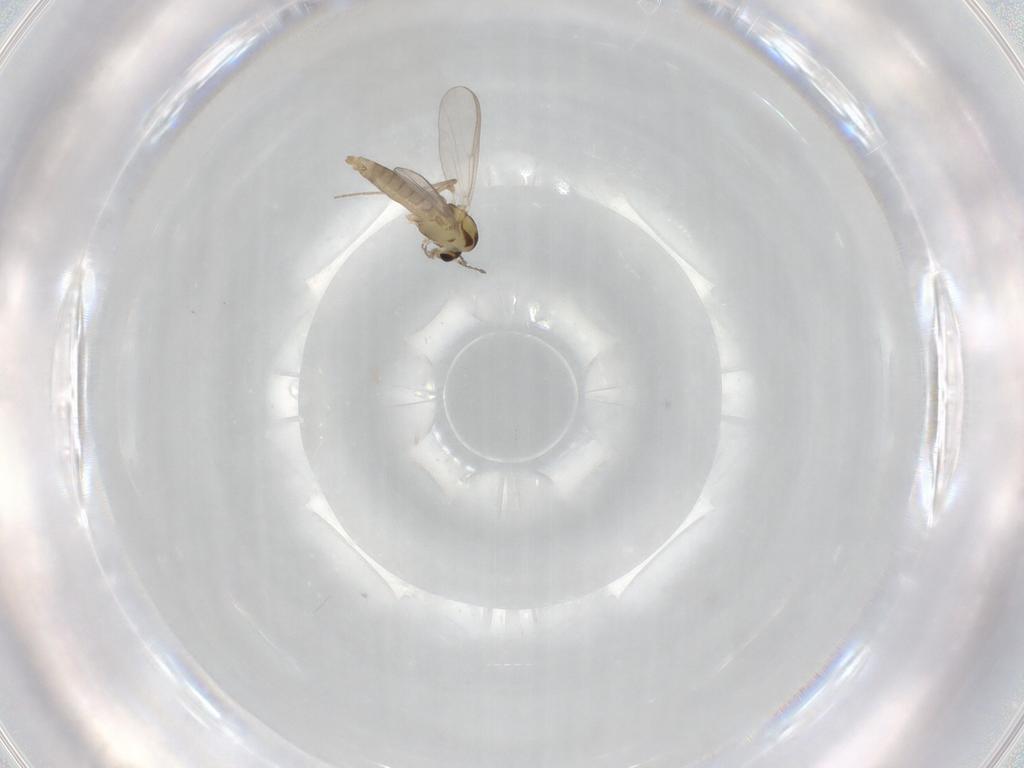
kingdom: Animalia
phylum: Arthropoda
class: Insecta
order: Diptera
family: Chironomidae
